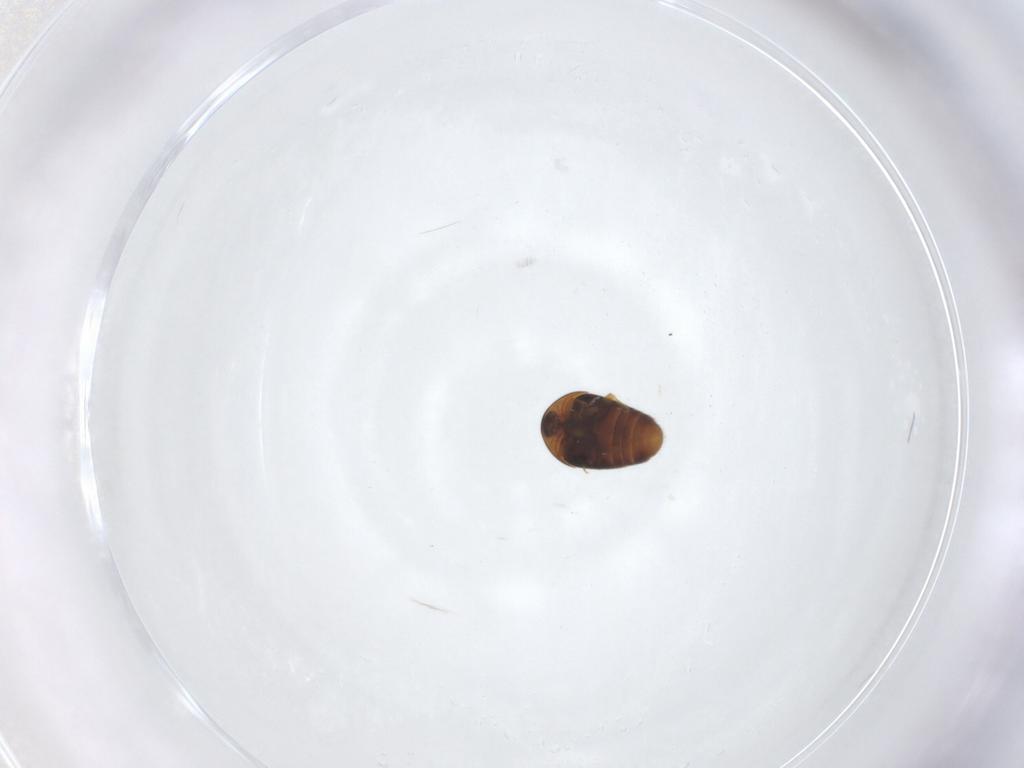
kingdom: Animalia
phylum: Arthropoda
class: Insecta
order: Coleoptera
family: Corylophidae
